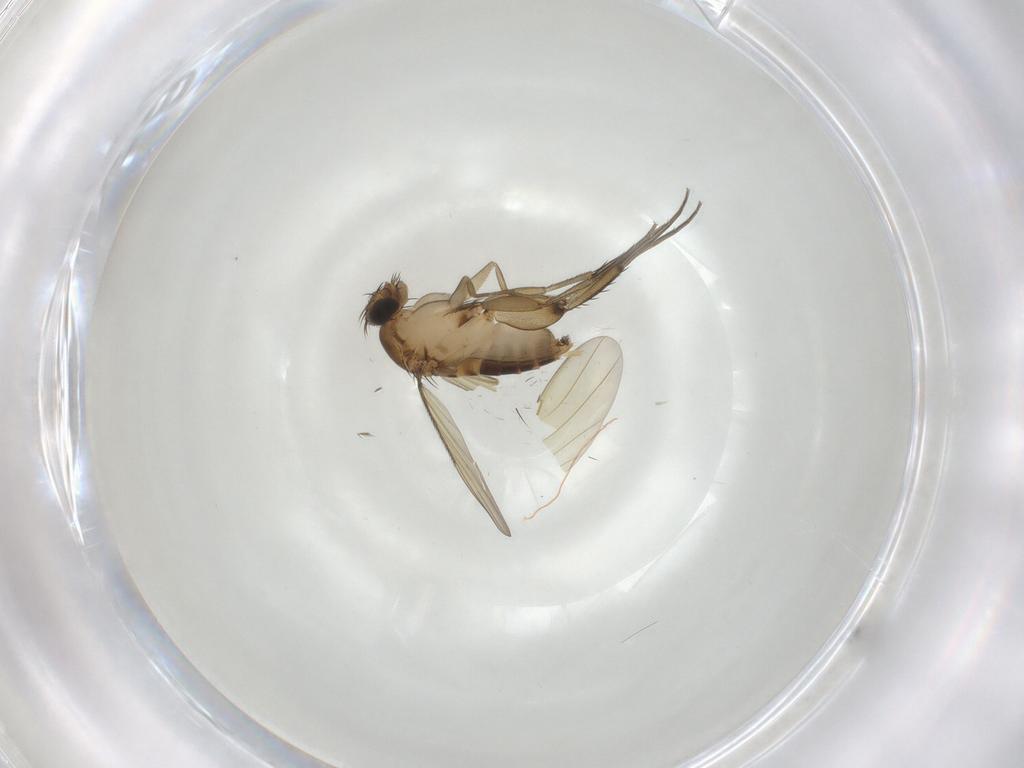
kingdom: Animalia
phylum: Arthropoda
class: Insecta
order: Diptera
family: Phoridae
